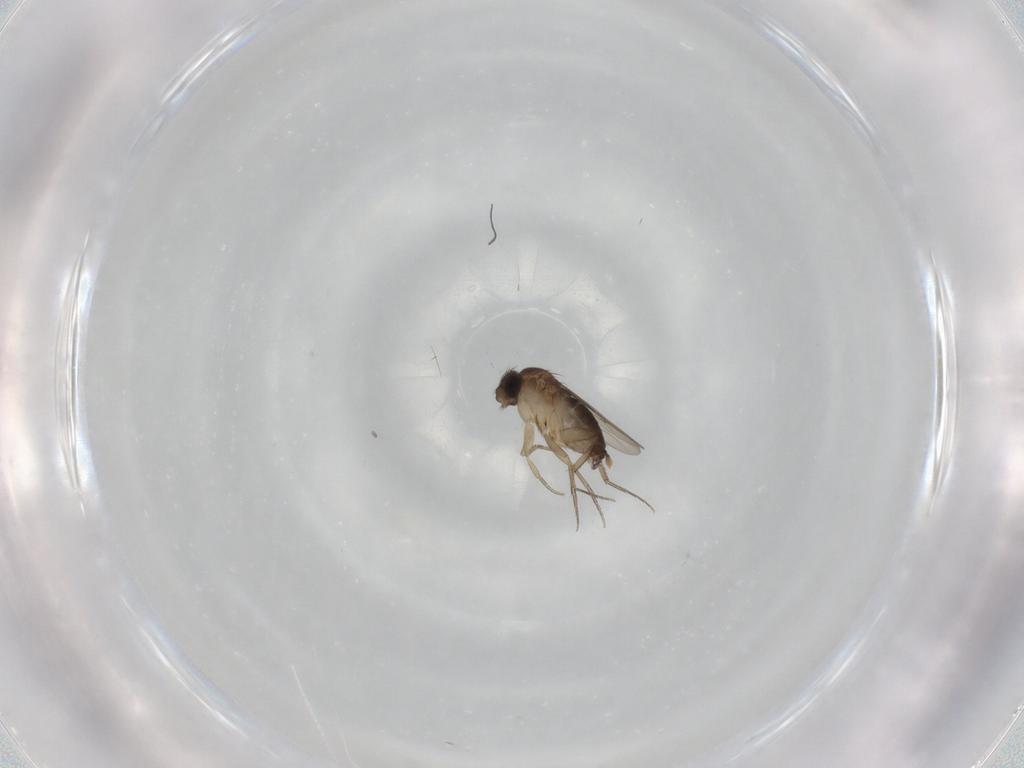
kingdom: Animalia
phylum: Arthropoda
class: Insecta
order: Diptera
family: Phoridae
